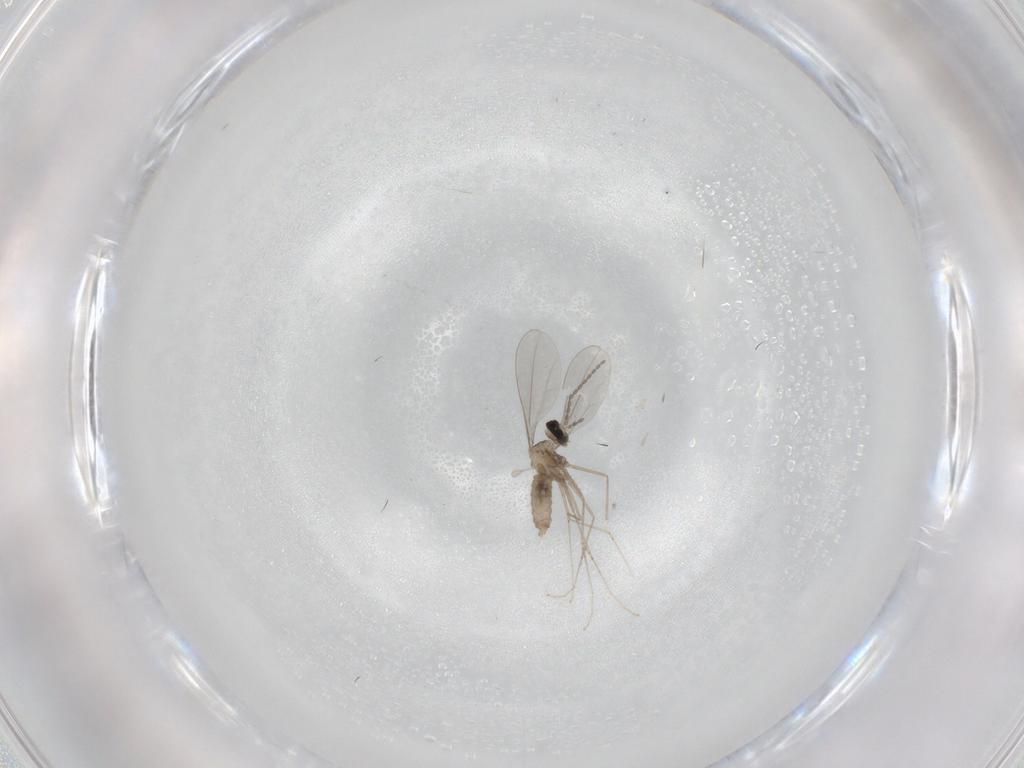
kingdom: Animalia
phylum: Arthropoda
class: Insecta
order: Diptera
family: Cecidomyiidae
